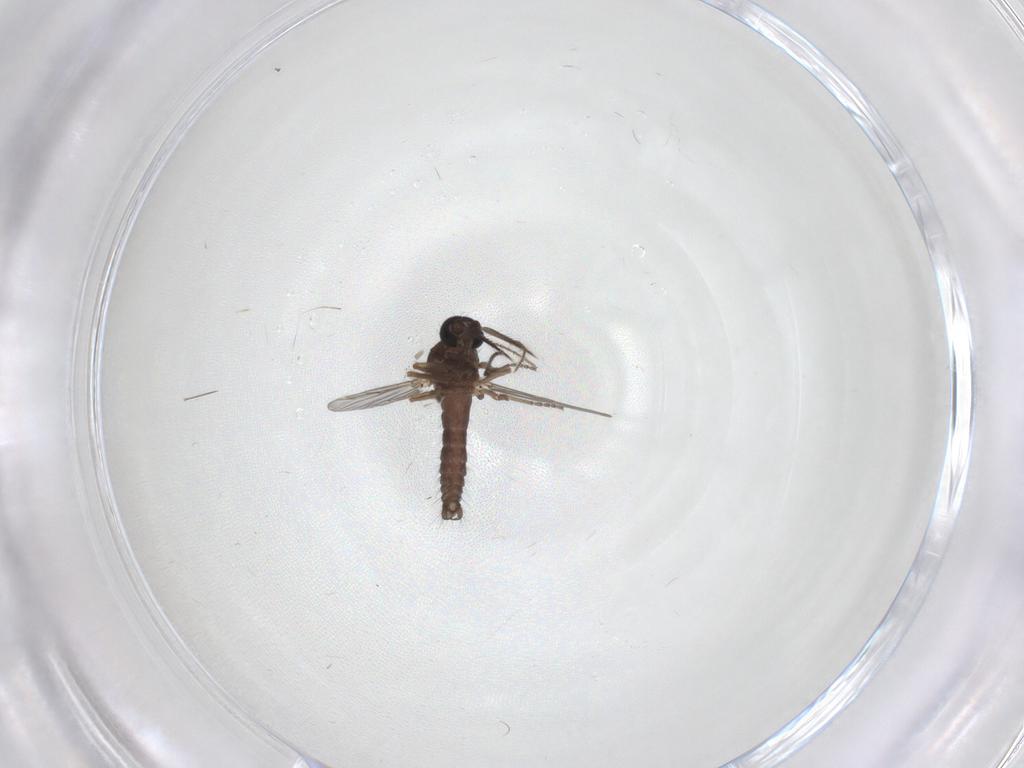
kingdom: Animalia
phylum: Arthropoda
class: Insecta
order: Diptera
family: Ceratopogonidae
